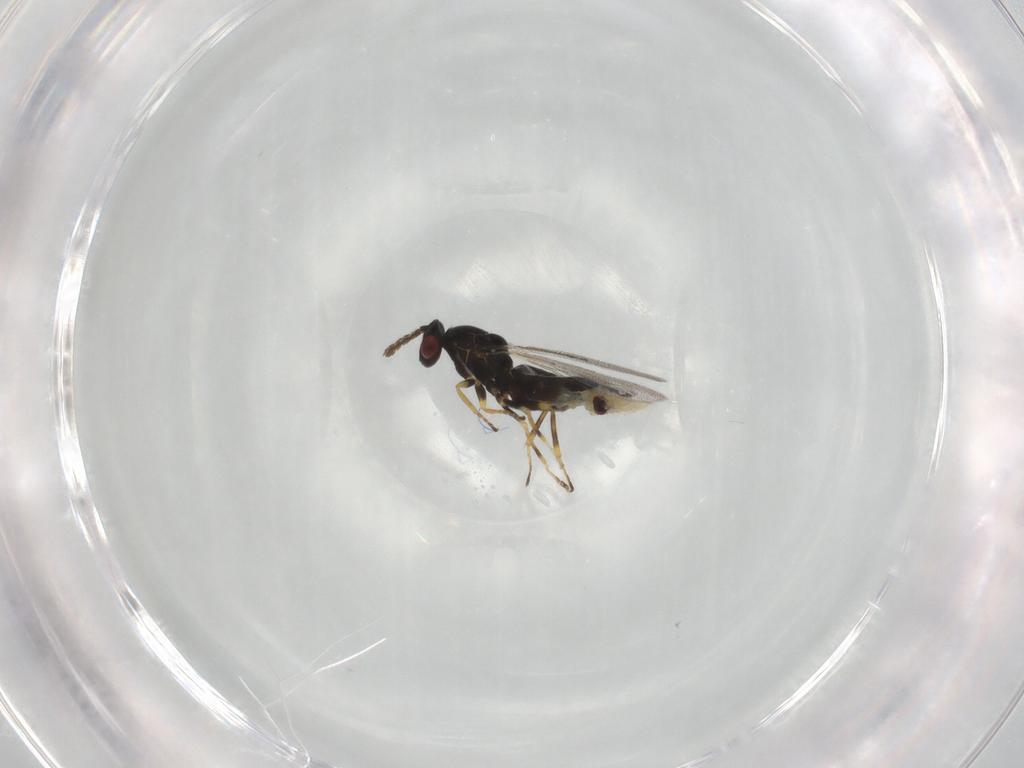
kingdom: Animalia
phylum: Arthropoda
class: Insecta
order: Hymenoptera
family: Eulophidae
